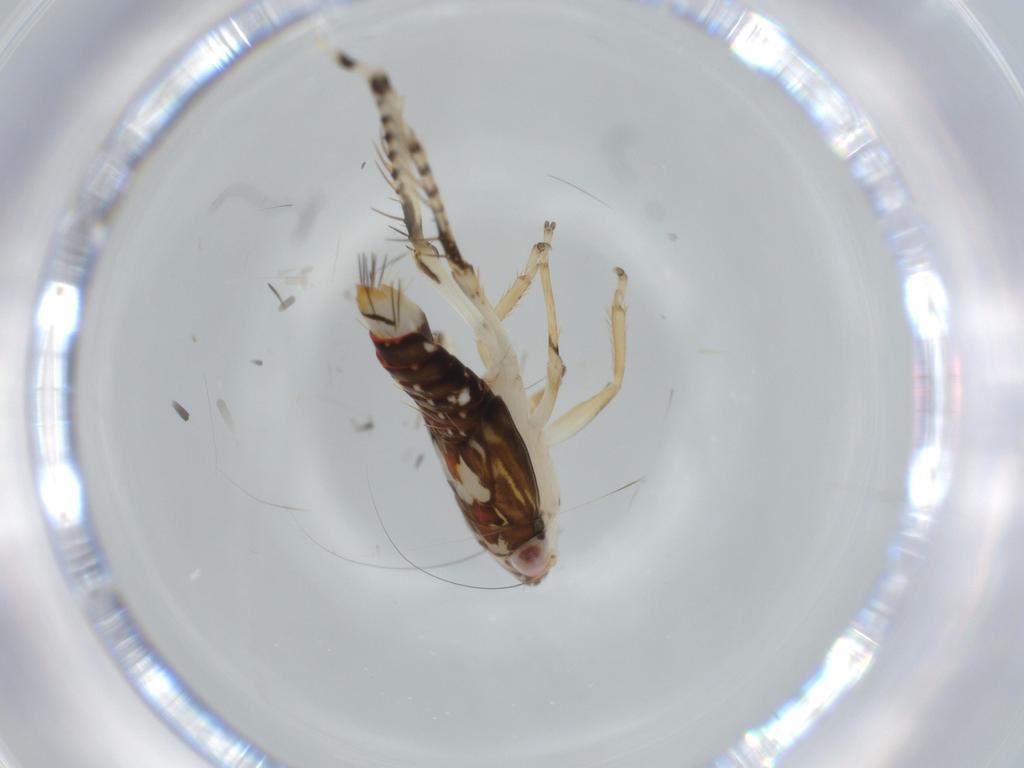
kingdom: Animalia
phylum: Arthropoda
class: Insecta
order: Hemiptera
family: Cicadellidae
